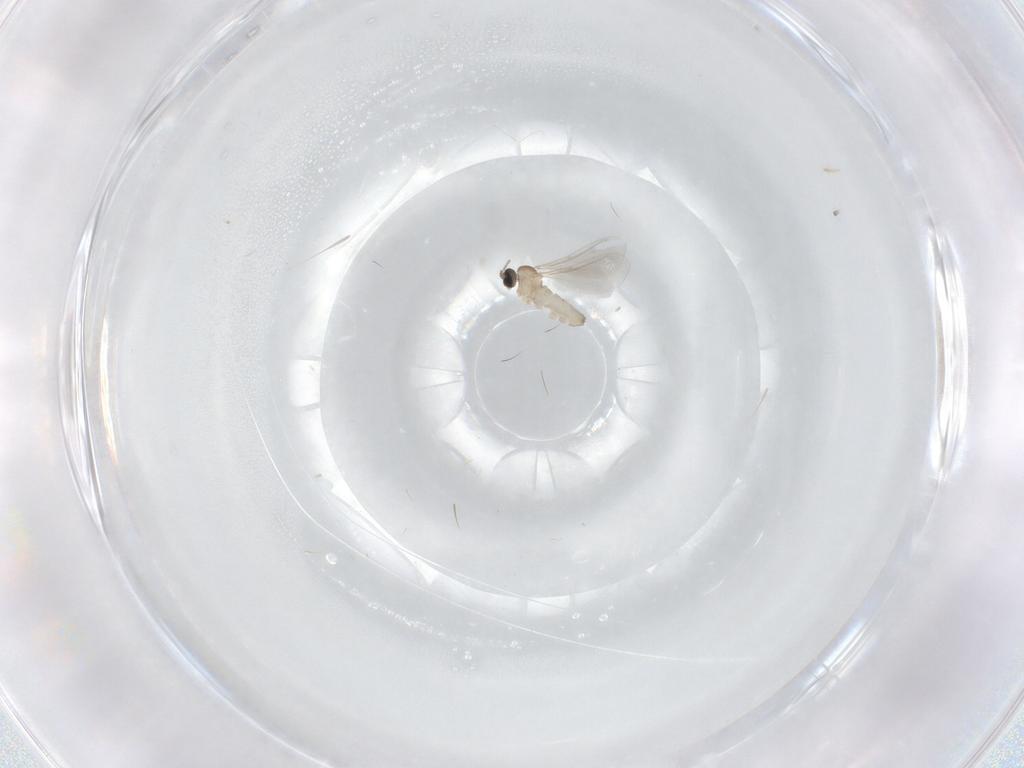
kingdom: Animalia
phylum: Arthropoda
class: Insecta
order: Diptera
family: Cecidomyiidae
